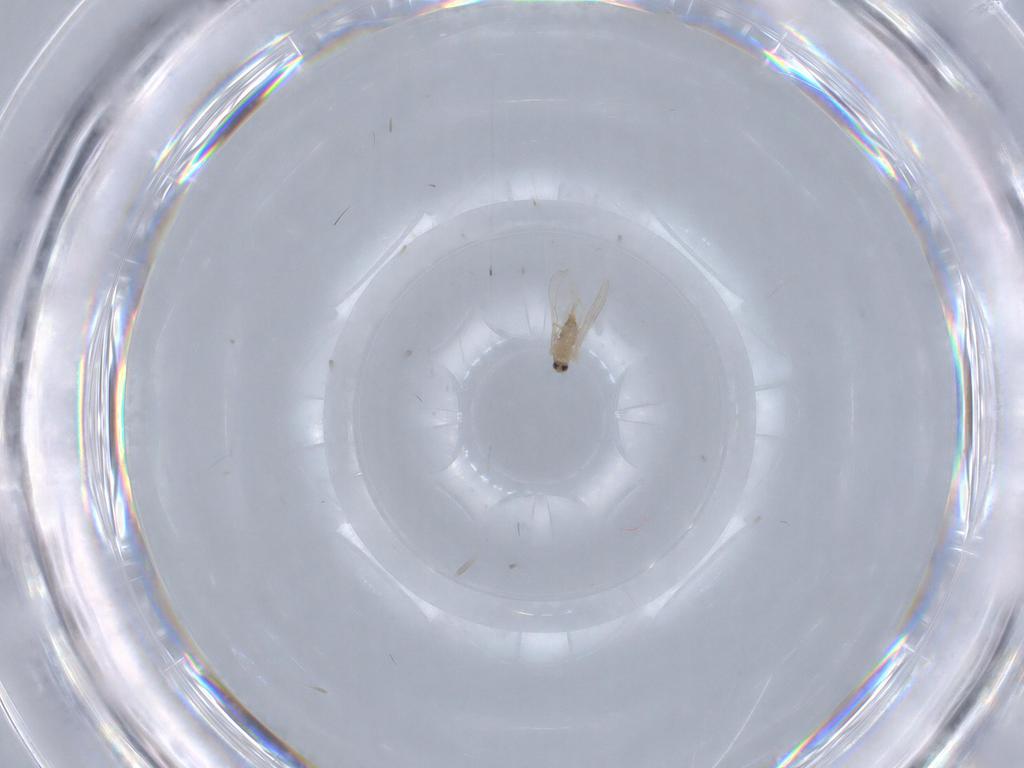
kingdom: Animalia
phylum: Arthropoda
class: Insecta
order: Diptera
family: Cecidomyiidae
